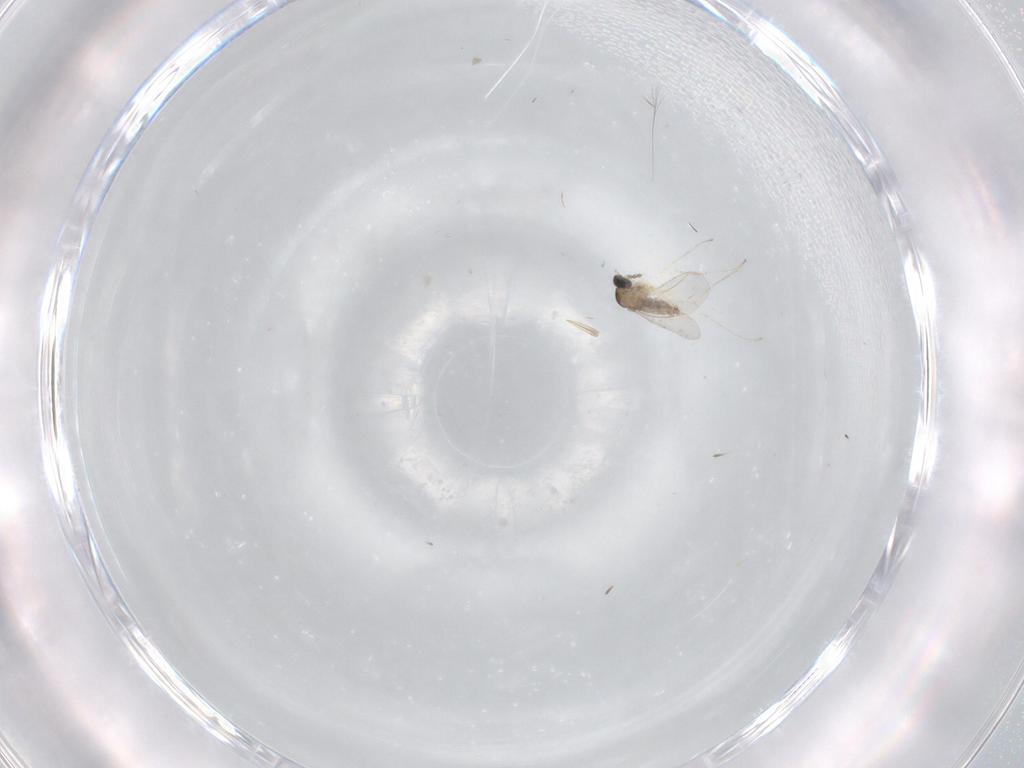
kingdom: Animalia
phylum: Arthropoda
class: Insecta
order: Diptera
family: Cecidomyiidae
